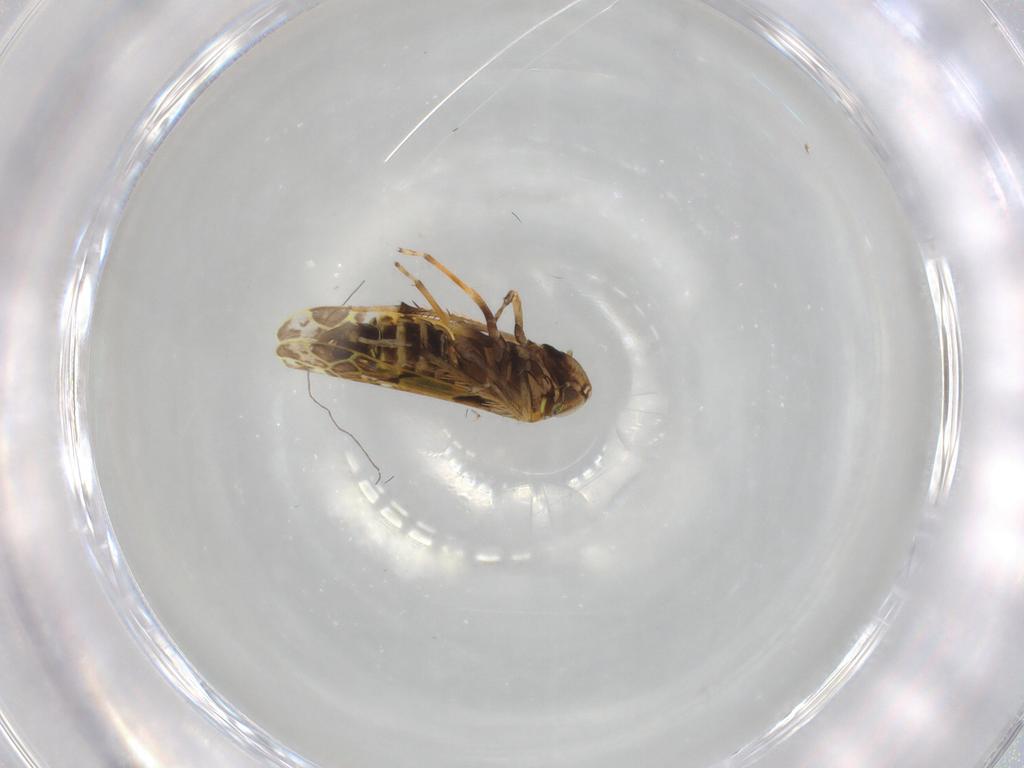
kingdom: Animalia
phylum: Arthropoda
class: Insecta
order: Hemiptera
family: Cicadellidae
